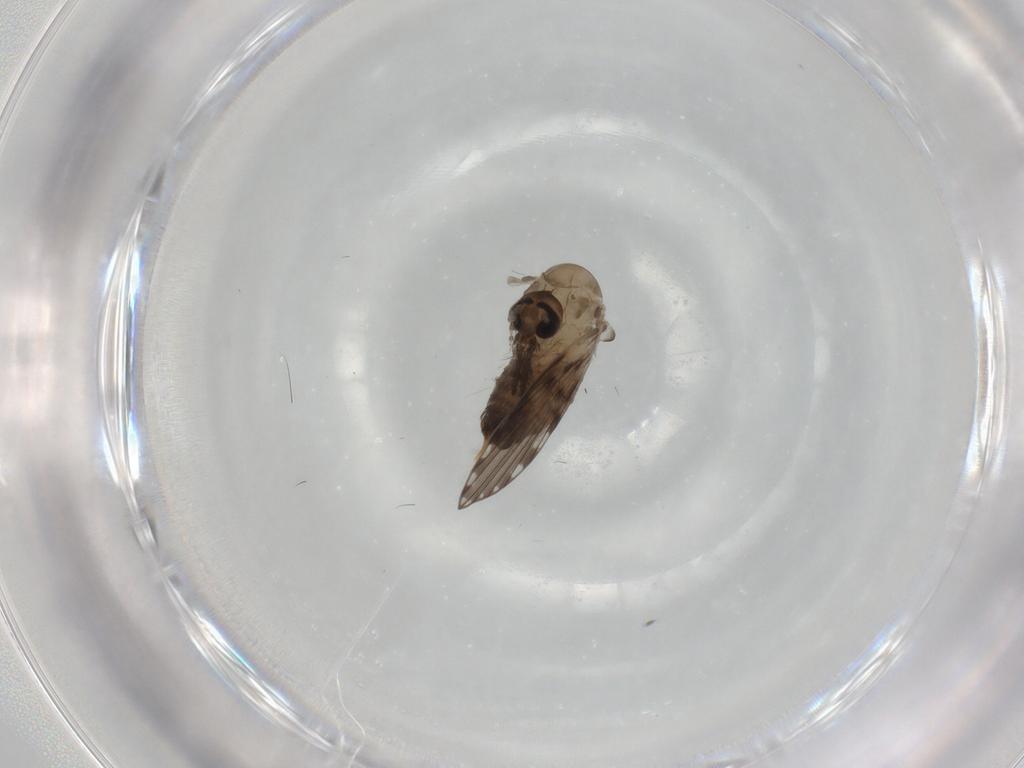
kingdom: Animalia
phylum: Arthropoda
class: Insecta
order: Diptera
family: Psychodidae
